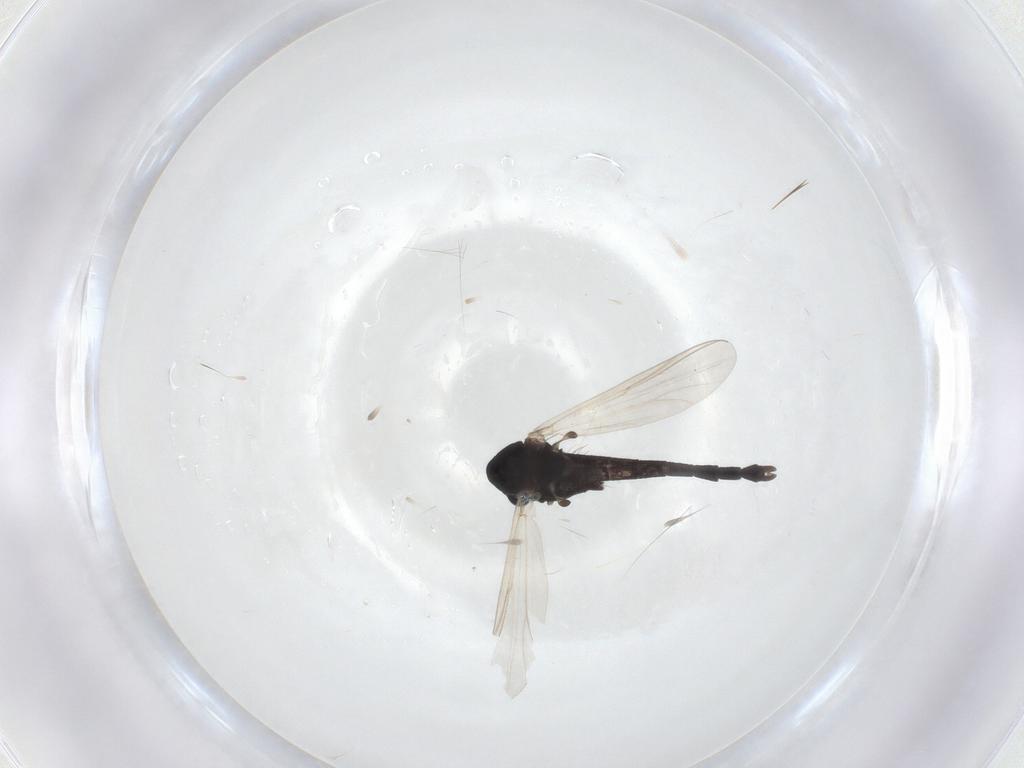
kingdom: Animalia
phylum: Arthropoda
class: Insecta
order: Diptera
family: Chironomidae
